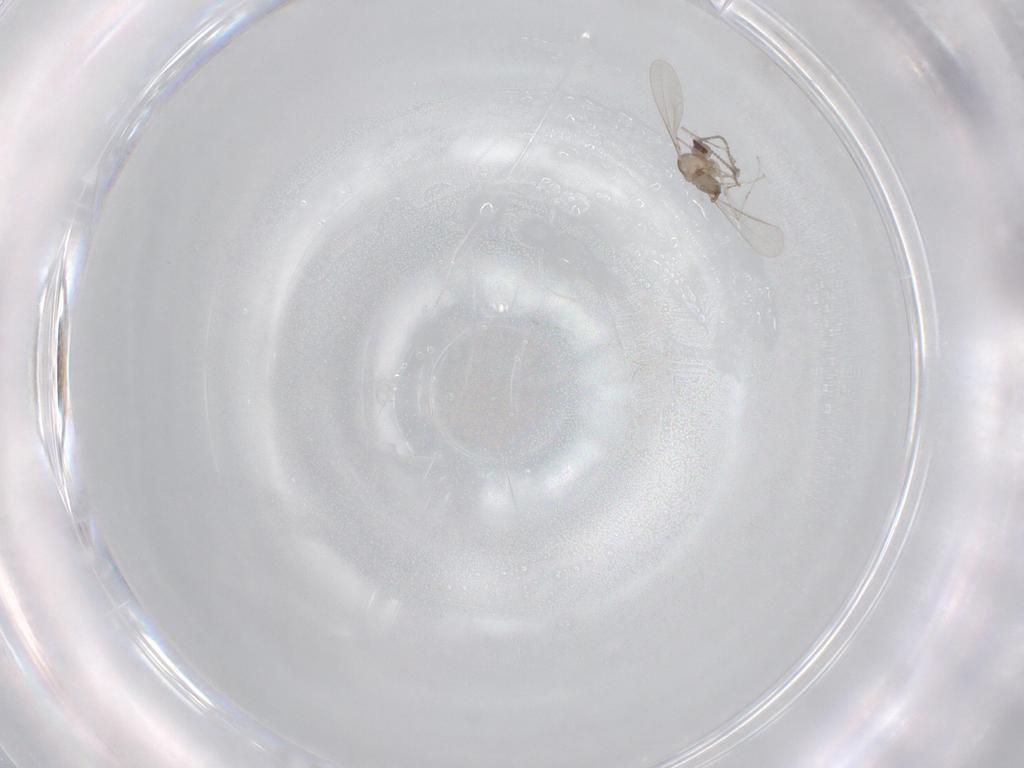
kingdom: Animalia
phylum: Arthropoda
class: Insecta
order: Diptera
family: Cecidomyiidae
